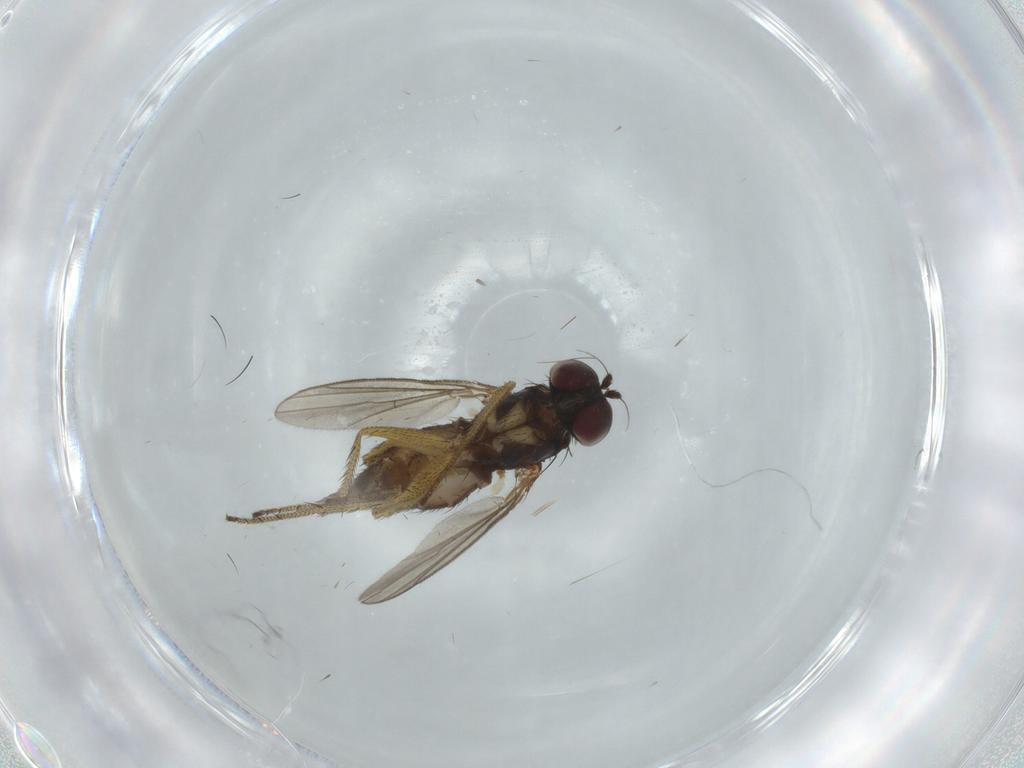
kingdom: Animalia
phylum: Arthropoda
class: Insecta
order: Diptera
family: Ceratopogonidae
